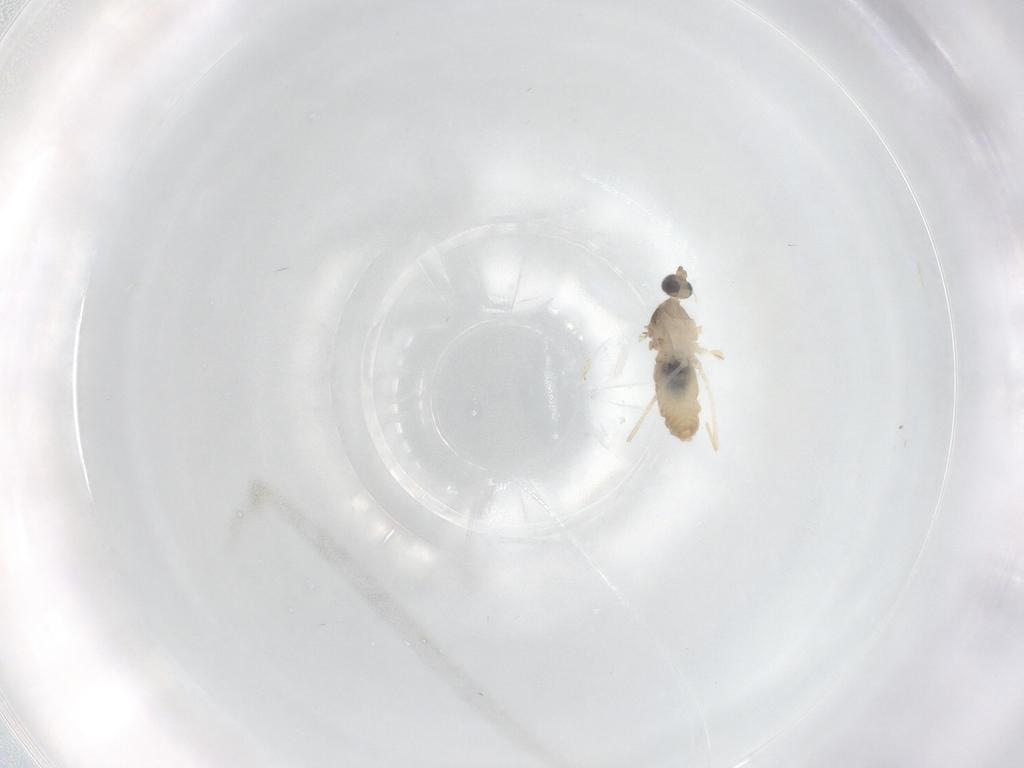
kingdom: Animalia
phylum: Arthropoda
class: Insecta
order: Diptera
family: Cecidomyiidae
